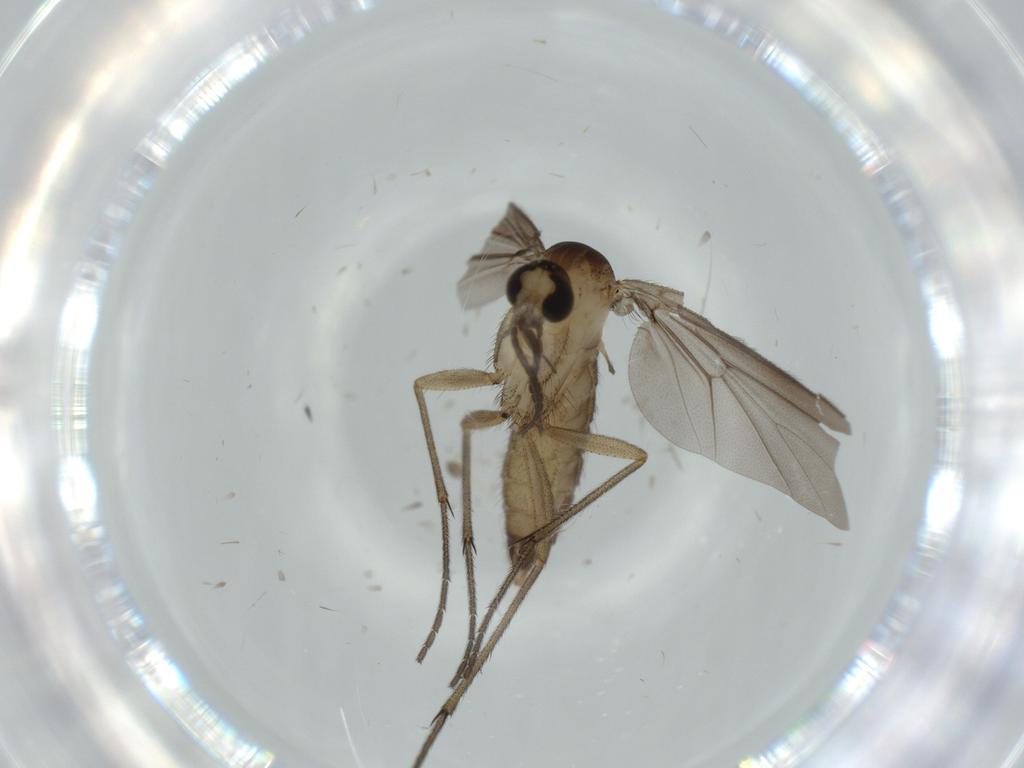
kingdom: Animalia
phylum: Arthropoda
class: Insecta
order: Diptera
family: Diadocidiidae
